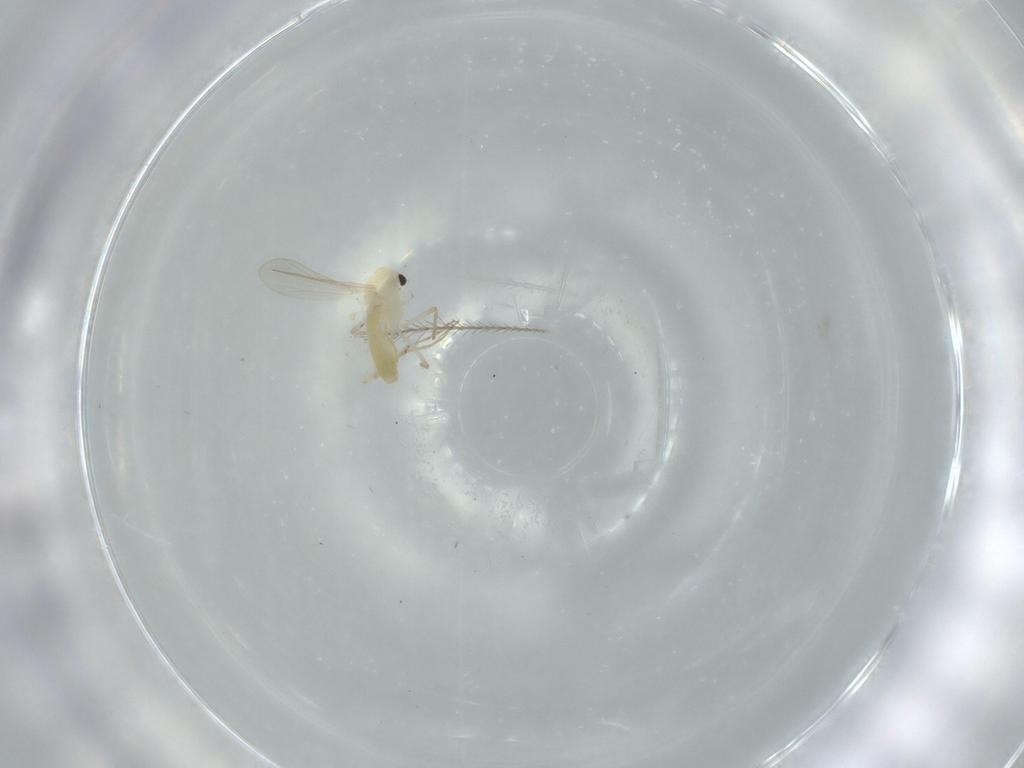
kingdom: Animalia
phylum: Arthropoda
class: Insecta
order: Diptera
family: Chironomidae
